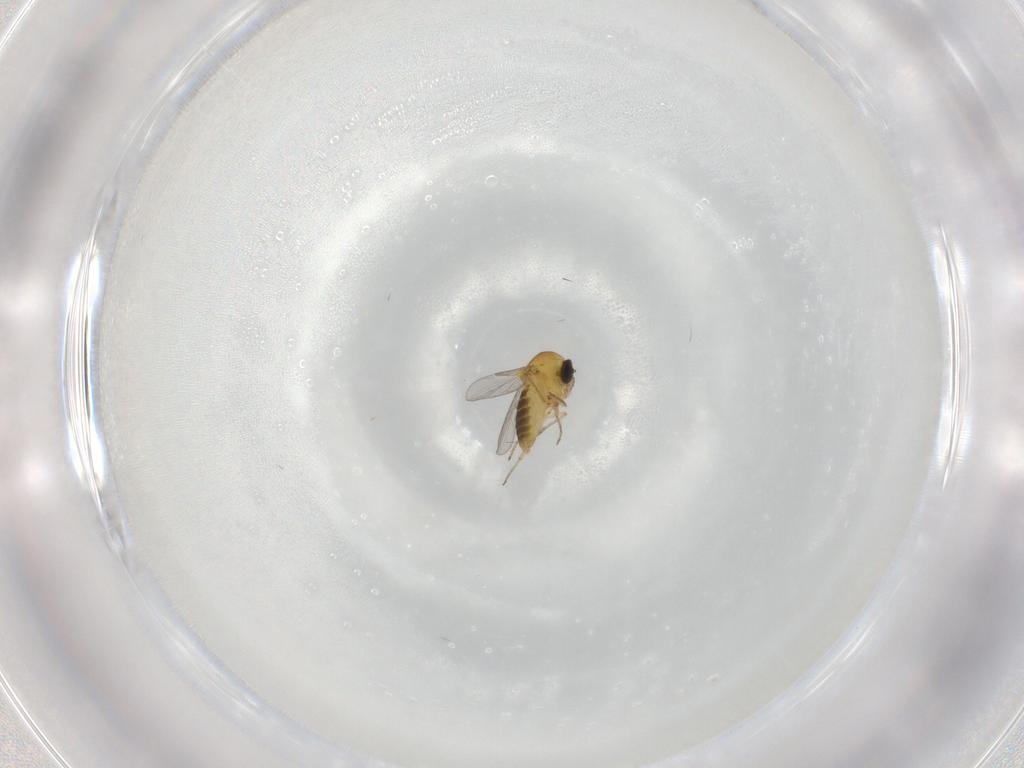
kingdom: Animalia
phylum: Arthropoda
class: Insecta
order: Diptera
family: Ceratopogonidae
